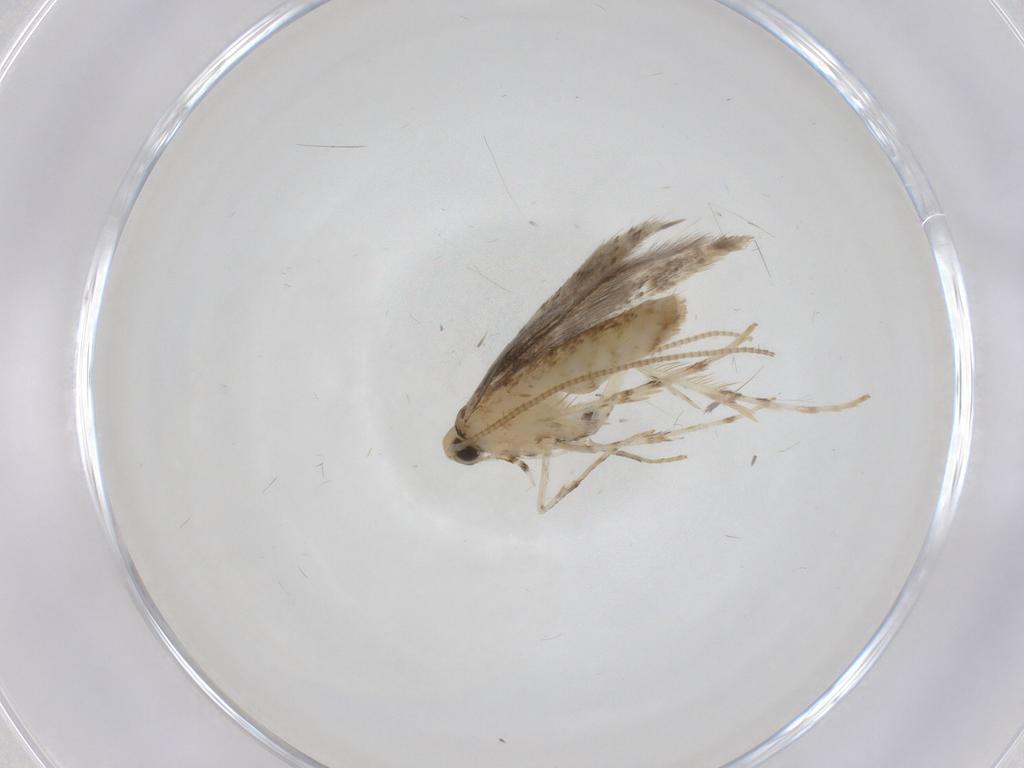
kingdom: Animalia
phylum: Arthropoda
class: Insecta
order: Lepidoptera
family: Gracillariidae
